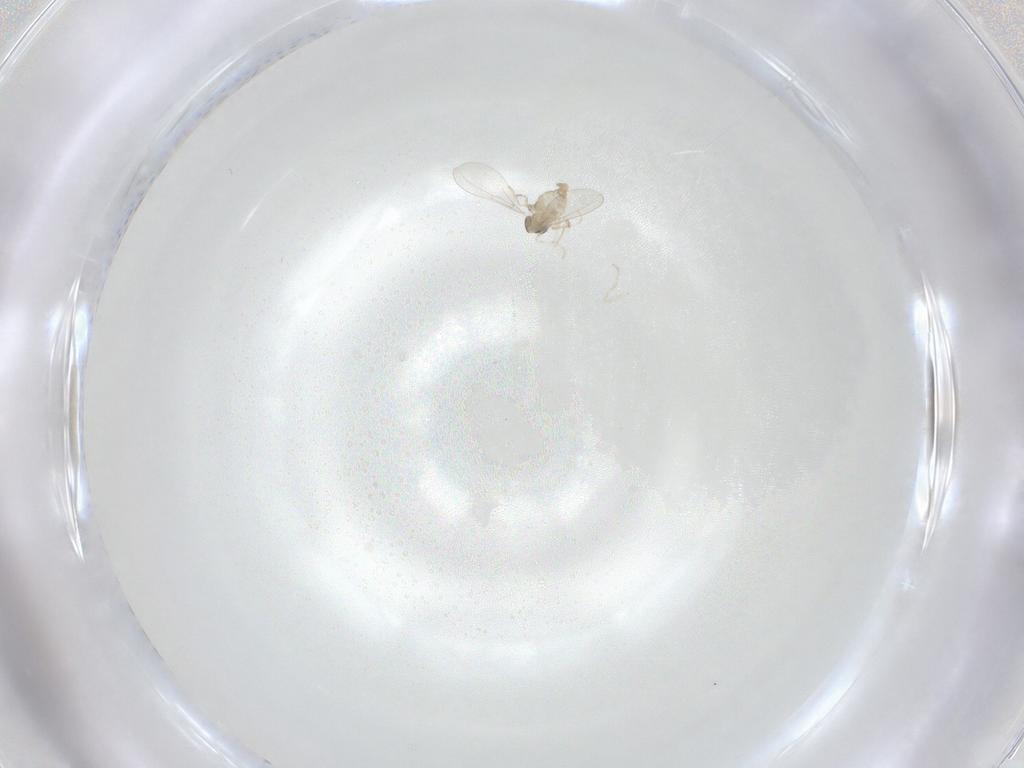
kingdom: Animalia
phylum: Arthropoda
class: Insecta
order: Diptera
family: Cecidomyiidae
